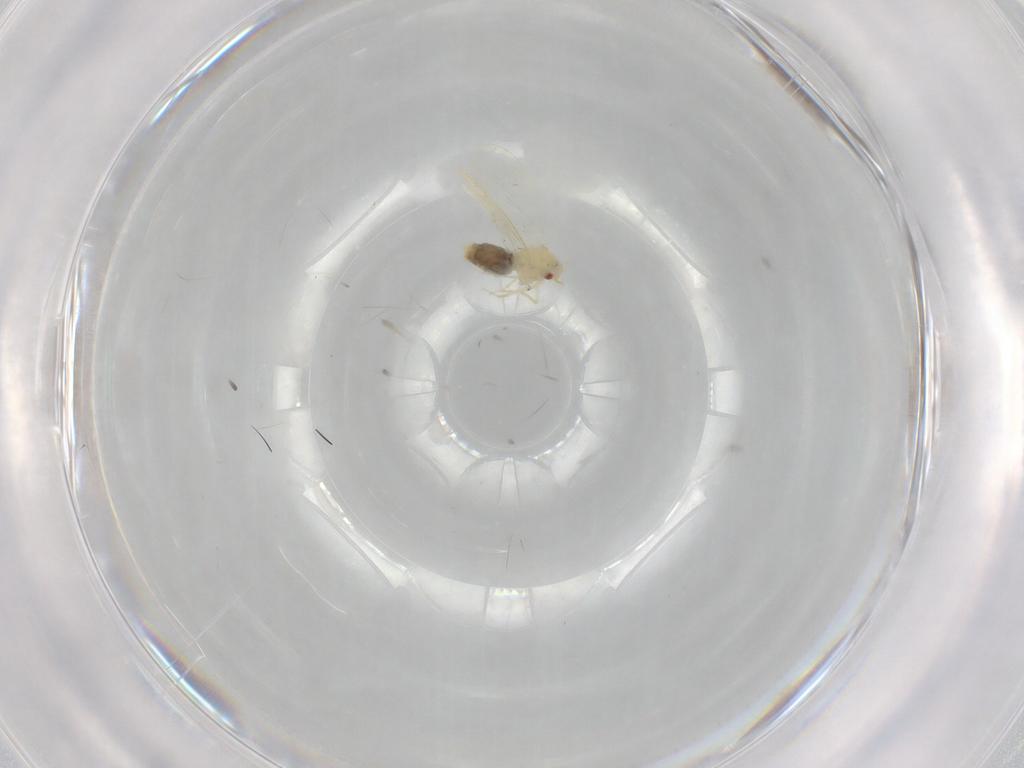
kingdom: Animalia
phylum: Arthropoda
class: Insecta
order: Hemiptera
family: Aleyrodidae
